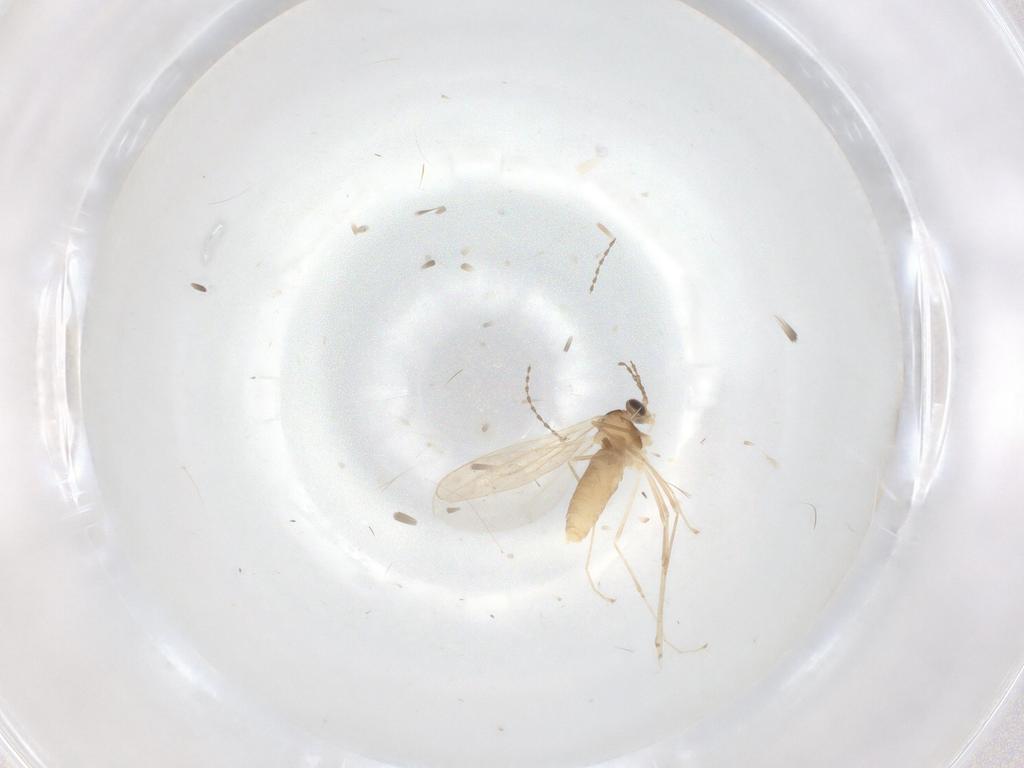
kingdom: Animalia
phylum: Arthropoda
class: Insecta
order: Diptera
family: Cecidomyiidae
